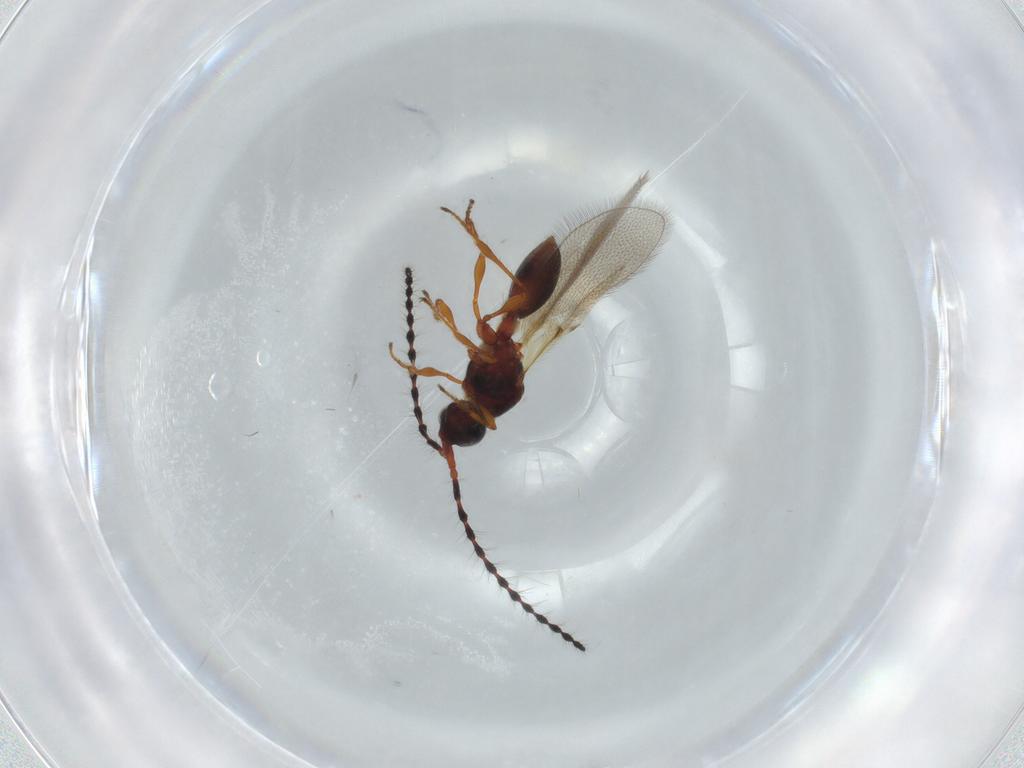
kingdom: Animalia
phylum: Arthropoda
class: Insecta
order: Hymenoptera
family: Diapriidae
